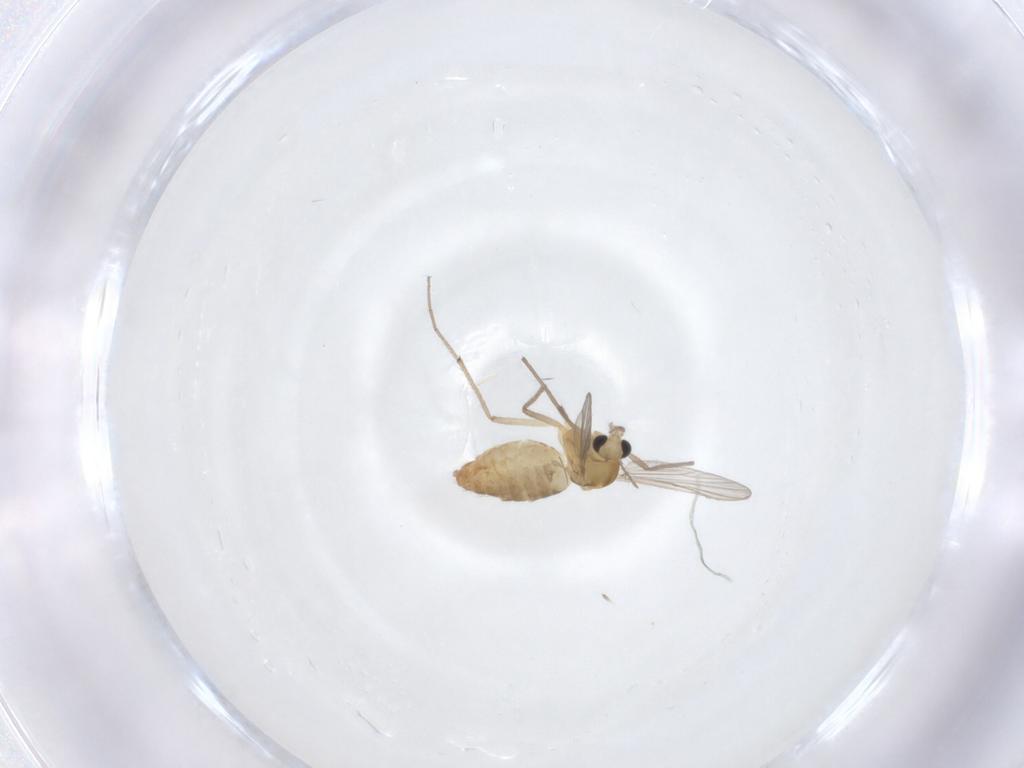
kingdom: Animalia
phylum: Arthropoda
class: Insecta
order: Diptera
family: Chironomidae
